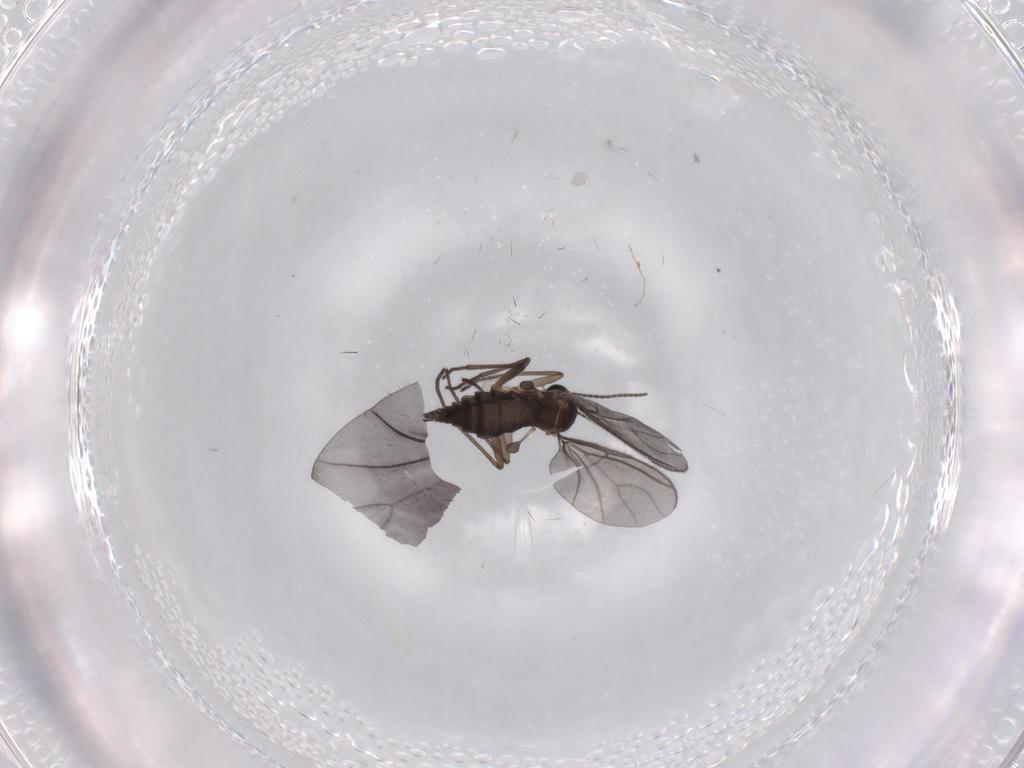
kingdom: Animalia
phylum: Arthropoda
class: Insecta
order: Diptera
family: Sciaridae
